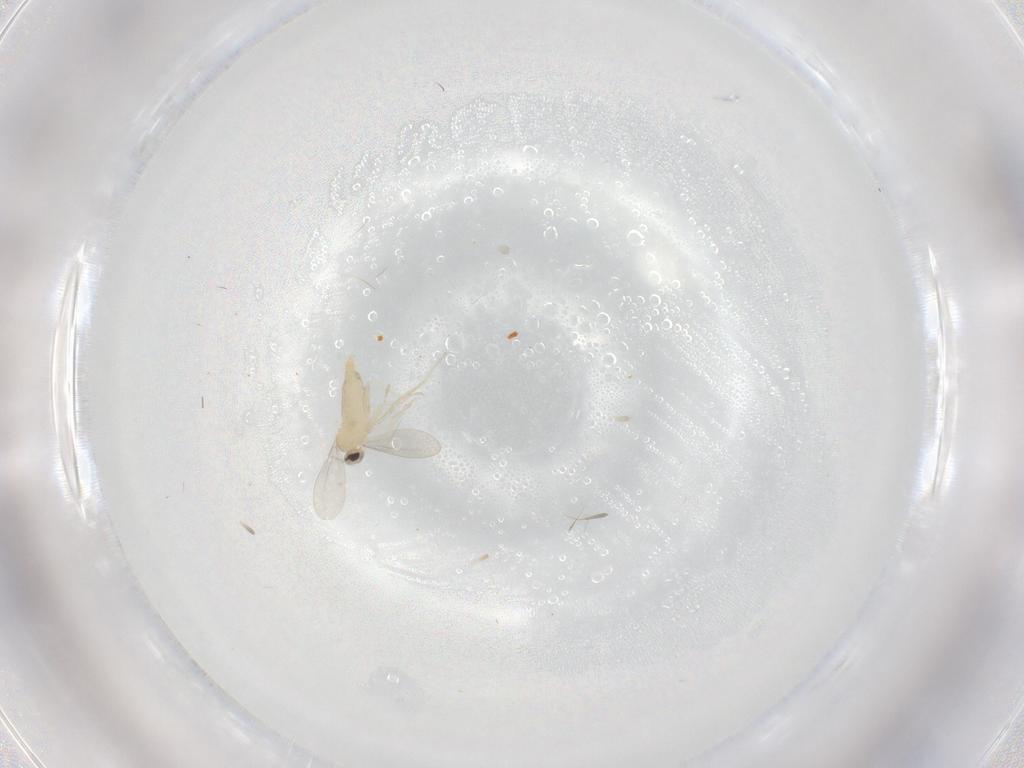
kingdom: Animalia
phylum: Arthropoda
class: Insecta
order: Diptera
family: Cecidomyiidae
